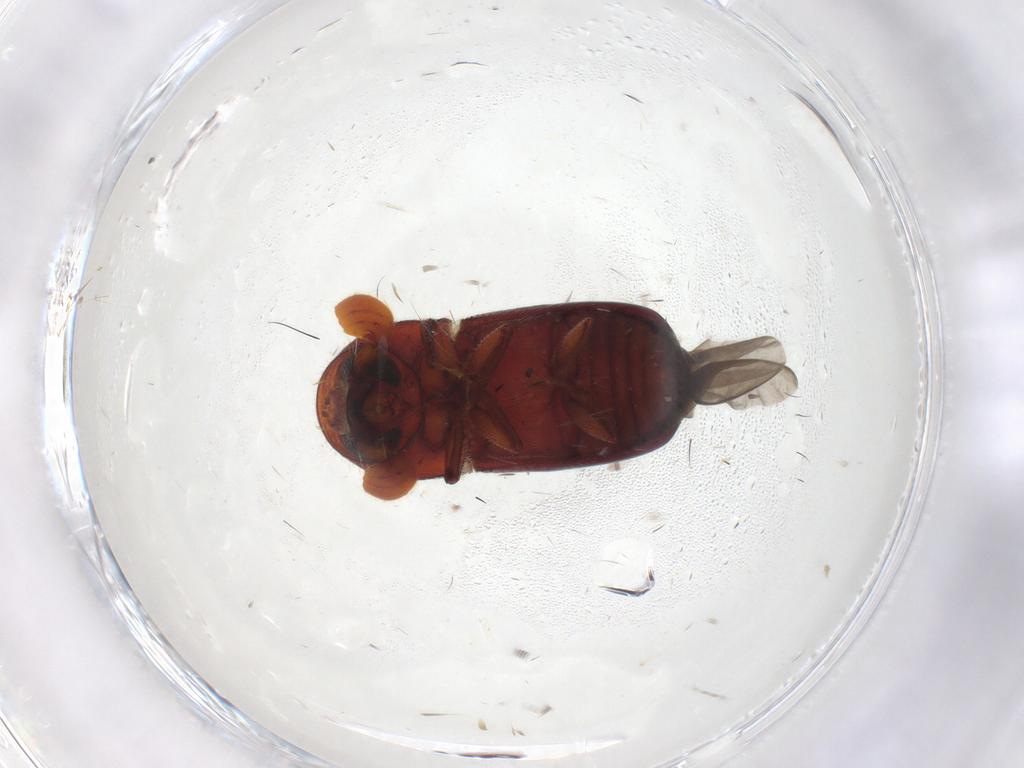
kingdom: Animalia
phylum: Arthropoda
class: Insecta
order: Coleoptera
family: Curculionidae
